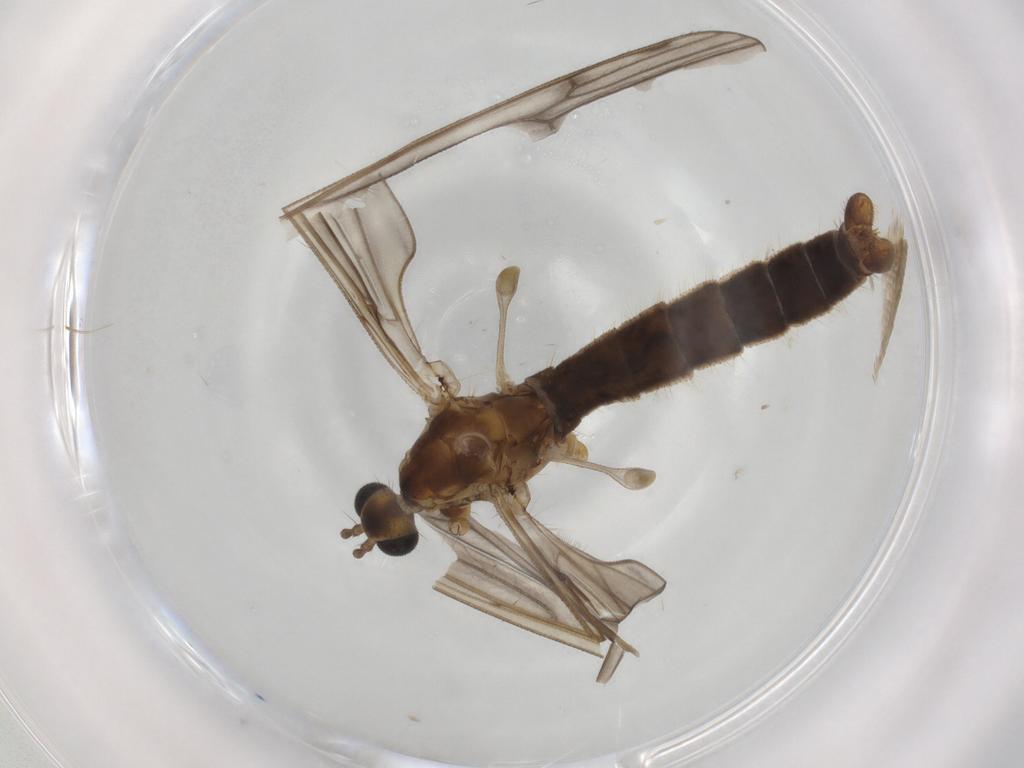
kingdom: Animalia
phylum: Arthropoda
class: Insecta
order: Diptera
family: Limoniidae
